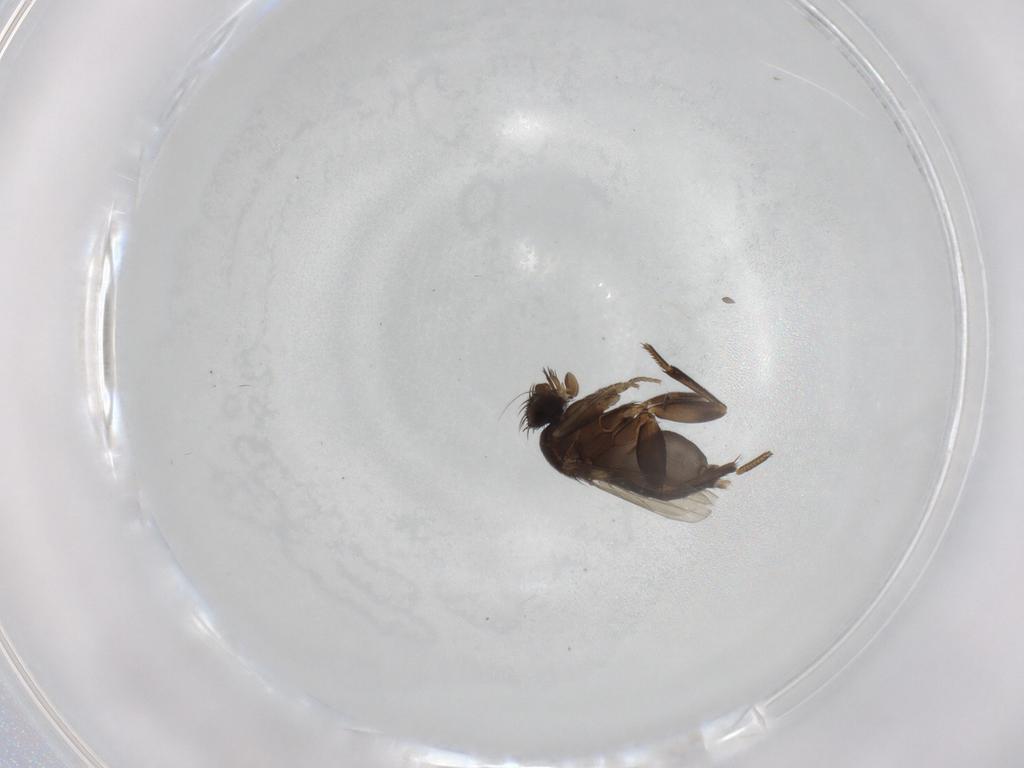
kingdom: Animalia
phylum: Arthropoda
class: Insecta
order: Diptera
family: Phoridae
